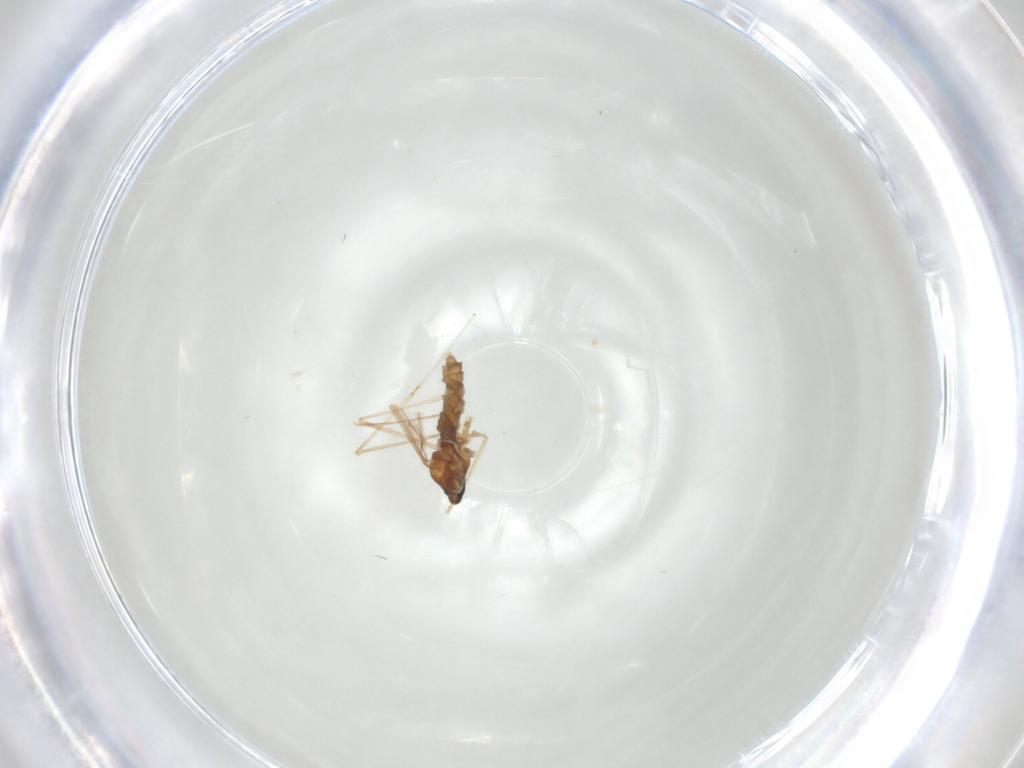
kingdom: Animalia
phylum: Arthropoda
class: Insecta
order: Diptera
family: Cecidomyiidae
